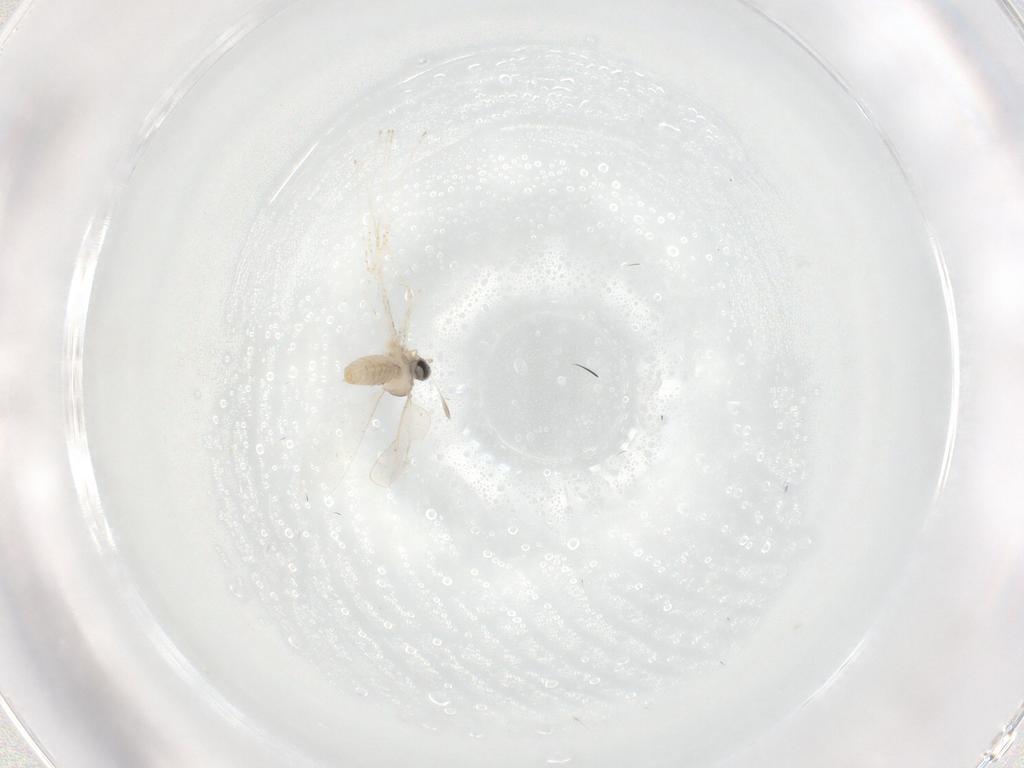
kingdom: Animalia
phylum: Arthropoda
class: Insecta
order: Diptera
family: Cecidomyiidae
